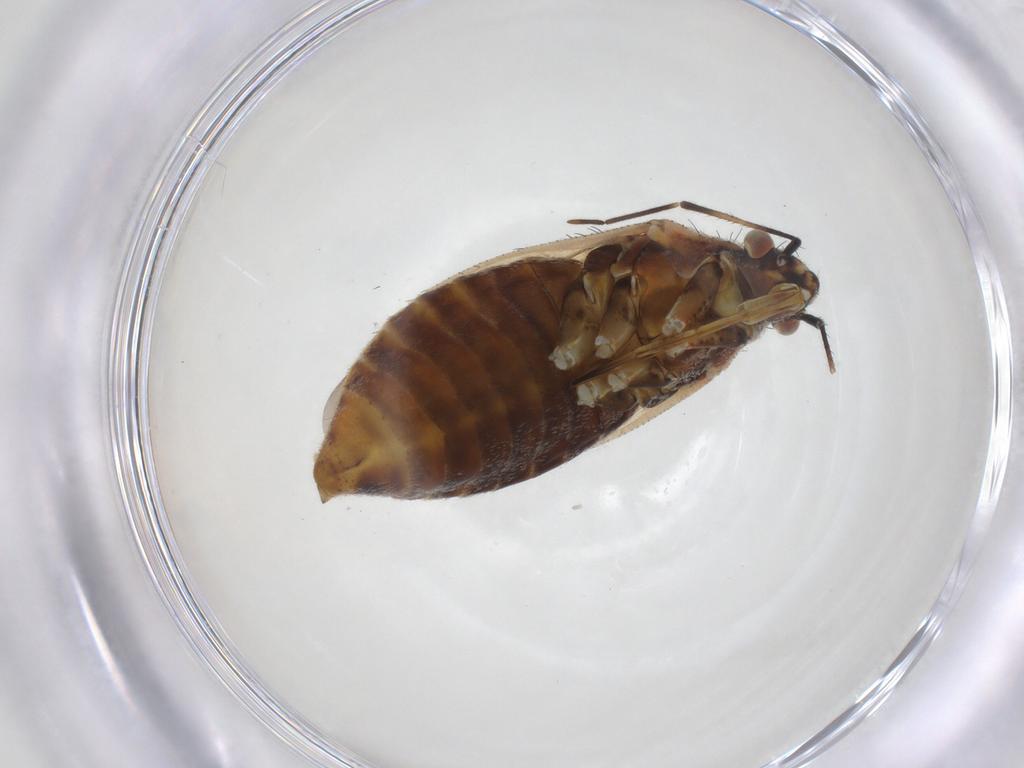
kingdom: Animalia
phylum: Arthropoda
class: Insecta
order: Hemiptera
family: Miridae
